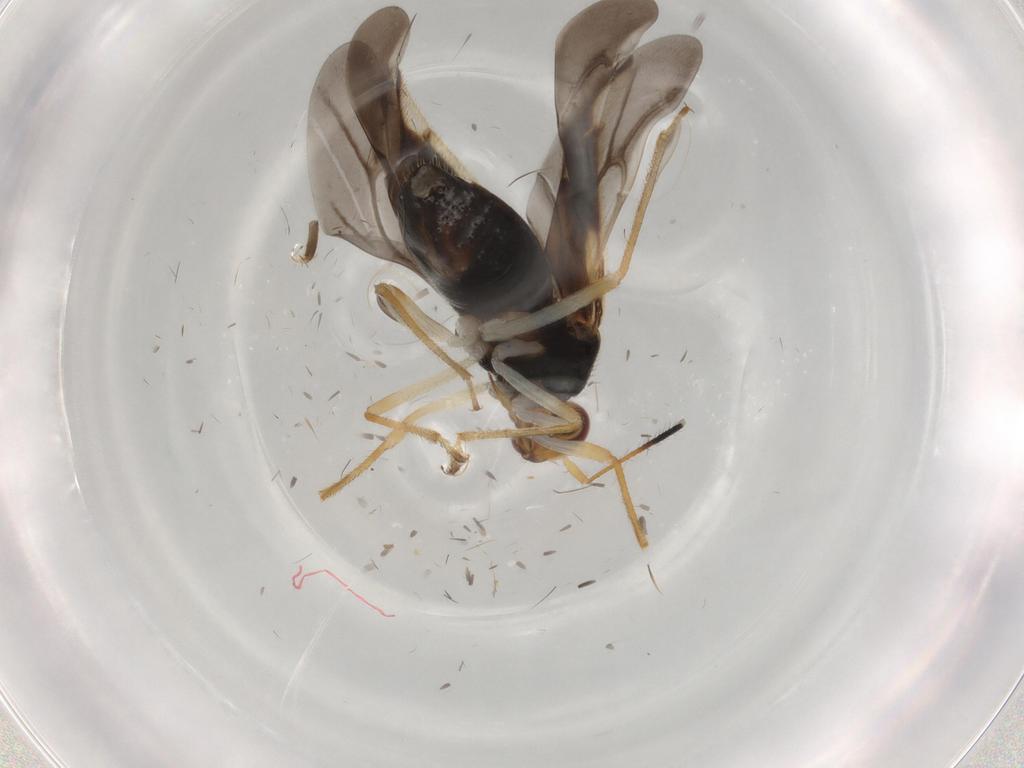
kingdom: Animalia
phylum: Arthropoda
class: Insecta
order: Hemiptera
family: Miridae
